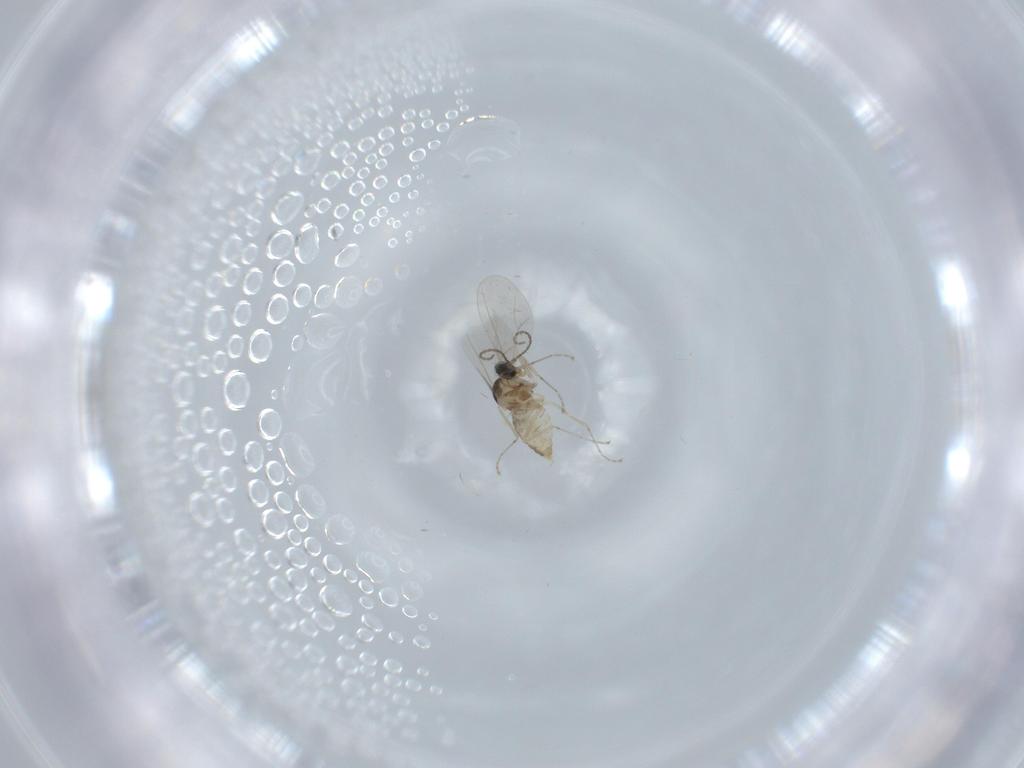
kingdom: Animalia
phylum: Arthropoda
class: Insecta
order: Diptera
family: Cecidomyiidae
